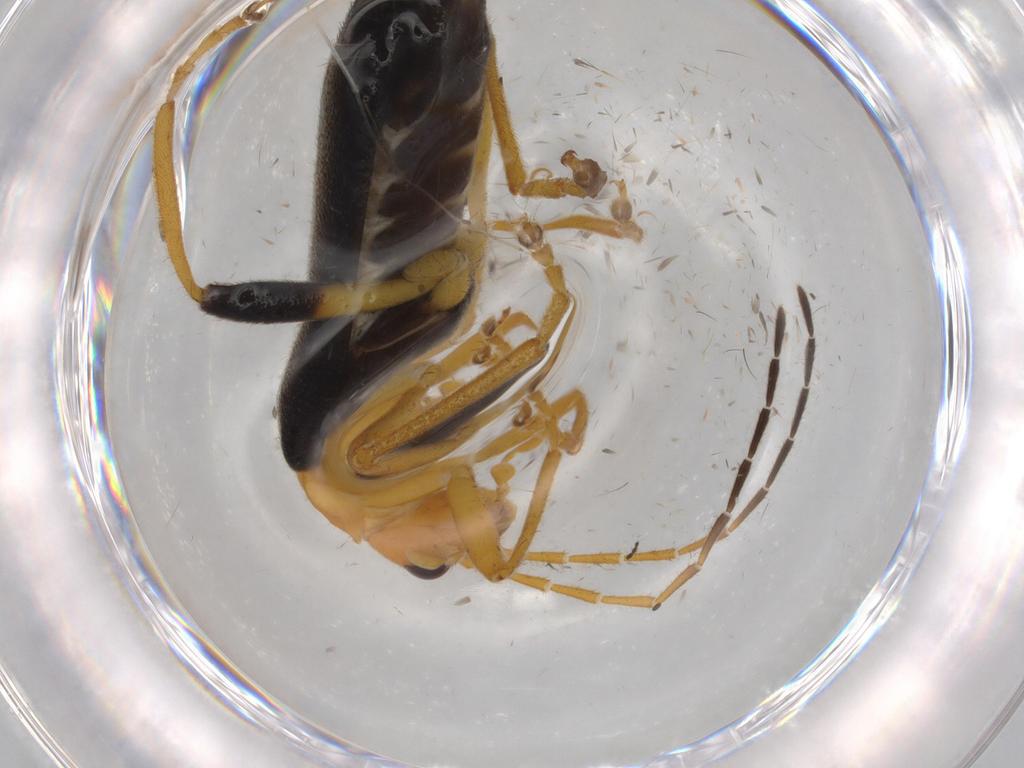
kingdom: Animalia
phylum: Arthropoda
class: Insecta
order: Coleoptera
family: Cantharidae
